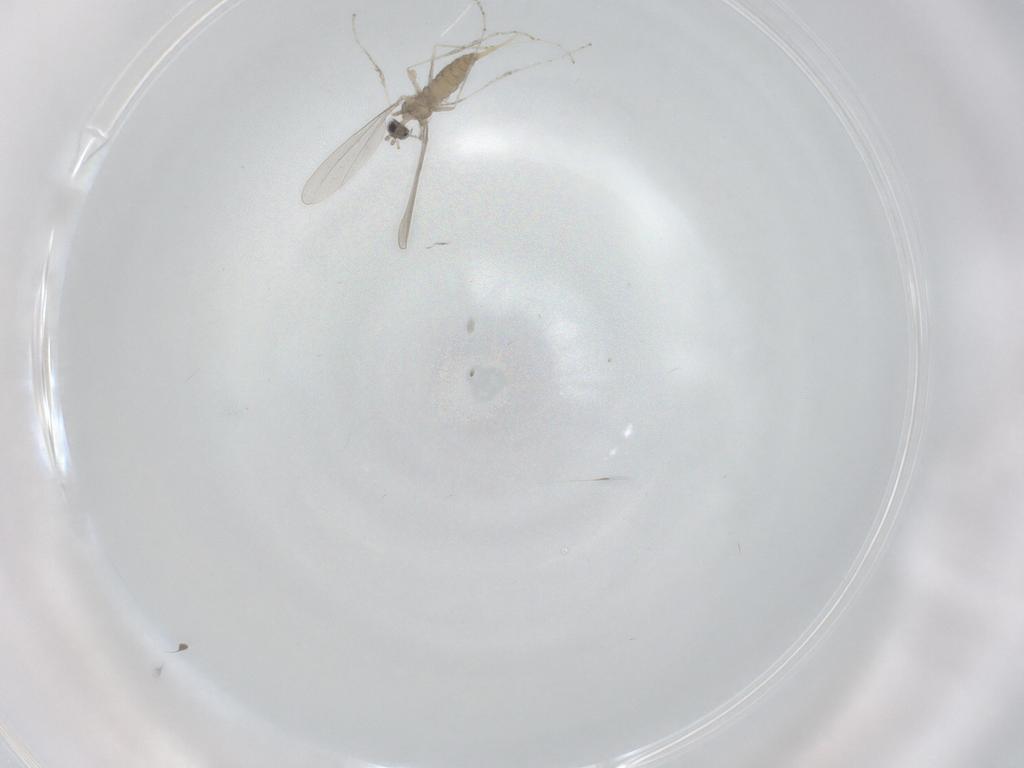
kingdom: Animalia
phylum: Arthropoda
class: Insecta
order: Diptera
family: Cecidomyiidae
